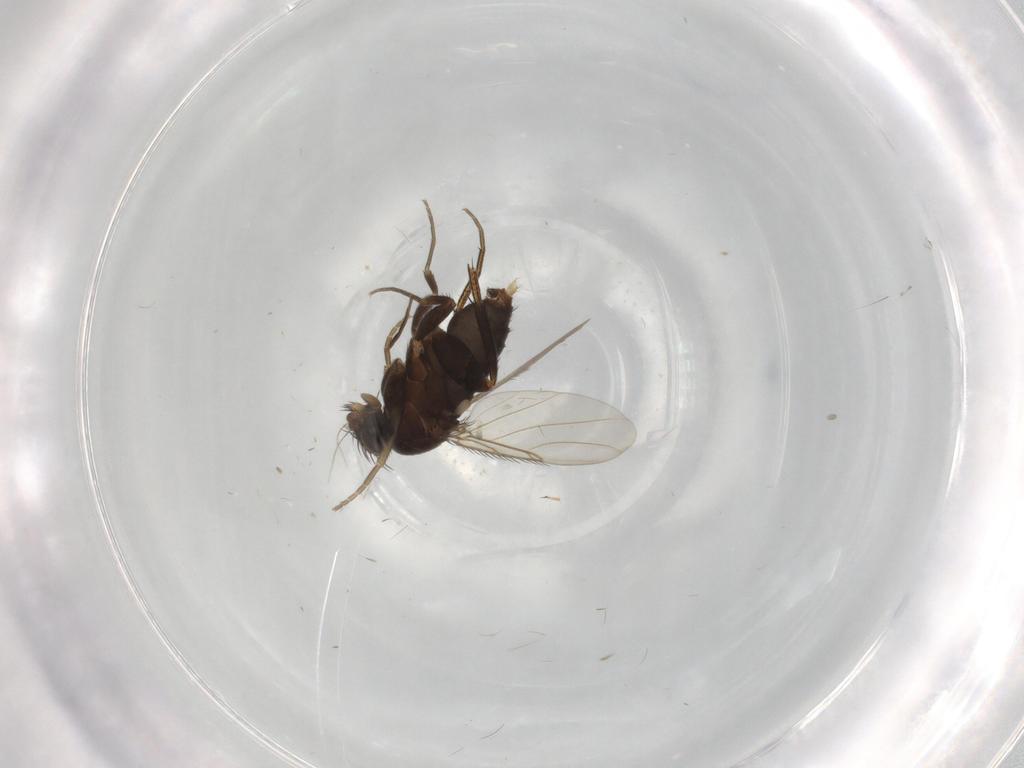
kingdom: Animalia
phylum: Arthropoda
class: Insecta
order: Diptera
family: Phoridae
